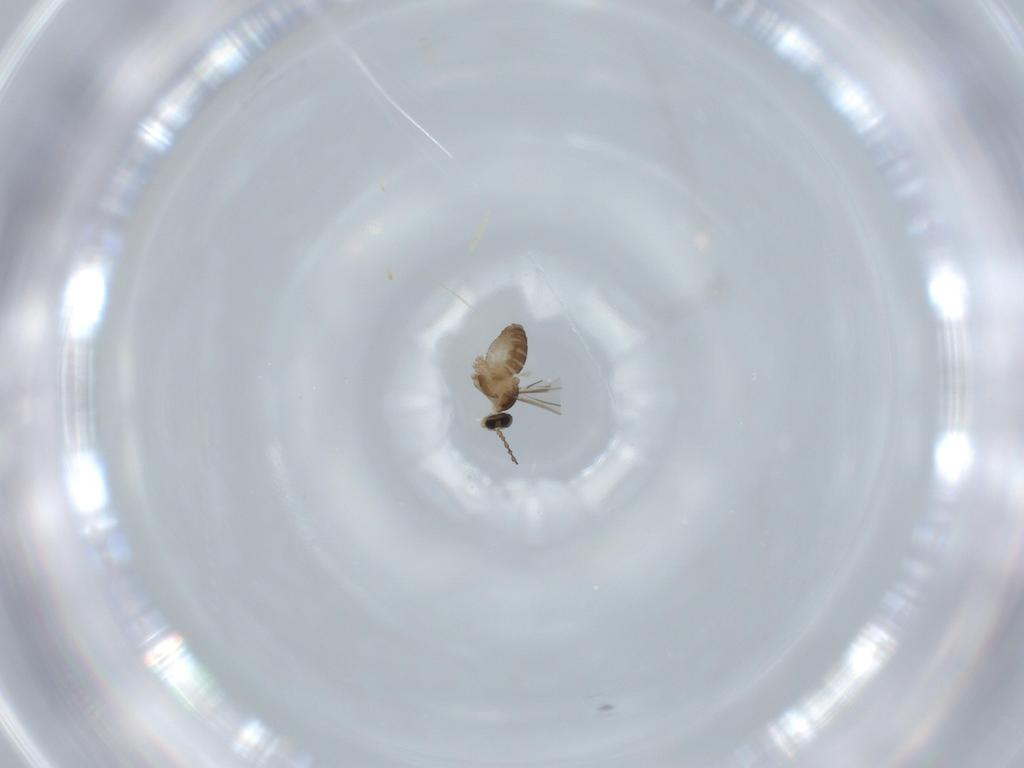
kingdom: Animalia
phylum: Arthropoda
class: Insecta
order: Diptera
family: Cecidomyiidae
